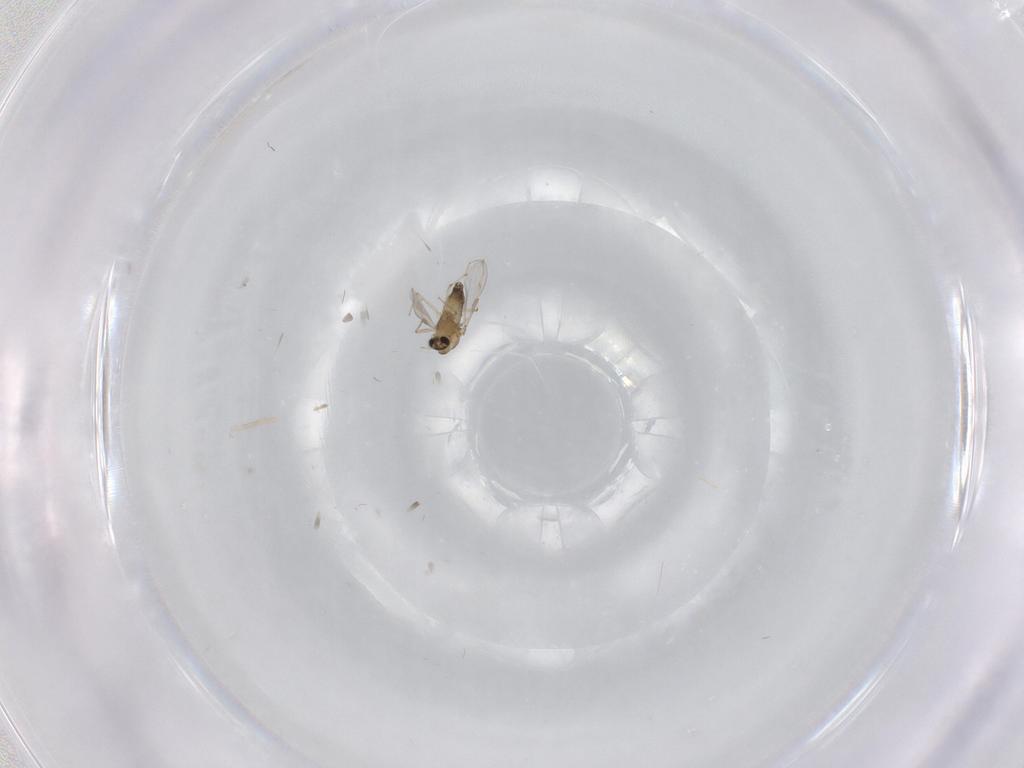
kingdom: Animalia
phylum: Arthropoda
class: Insecta
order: Diptera
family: Chironomidae
